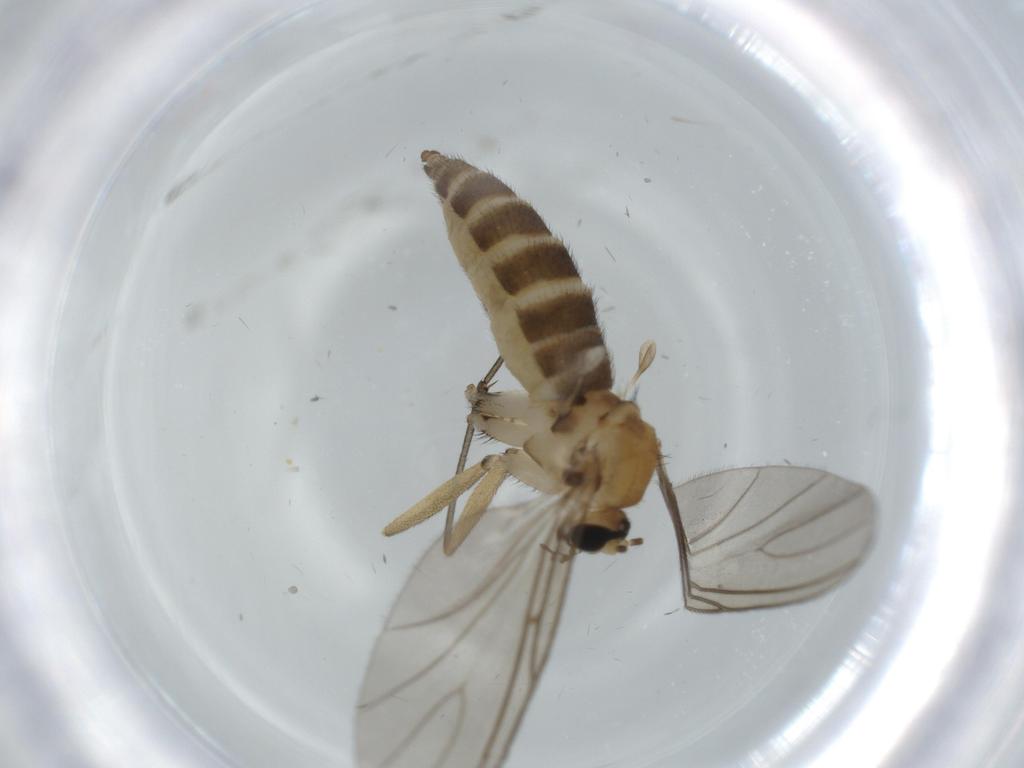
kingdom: Animalia
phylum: Arthropoda
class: Insecta
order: Diptera
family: Sciaridae
